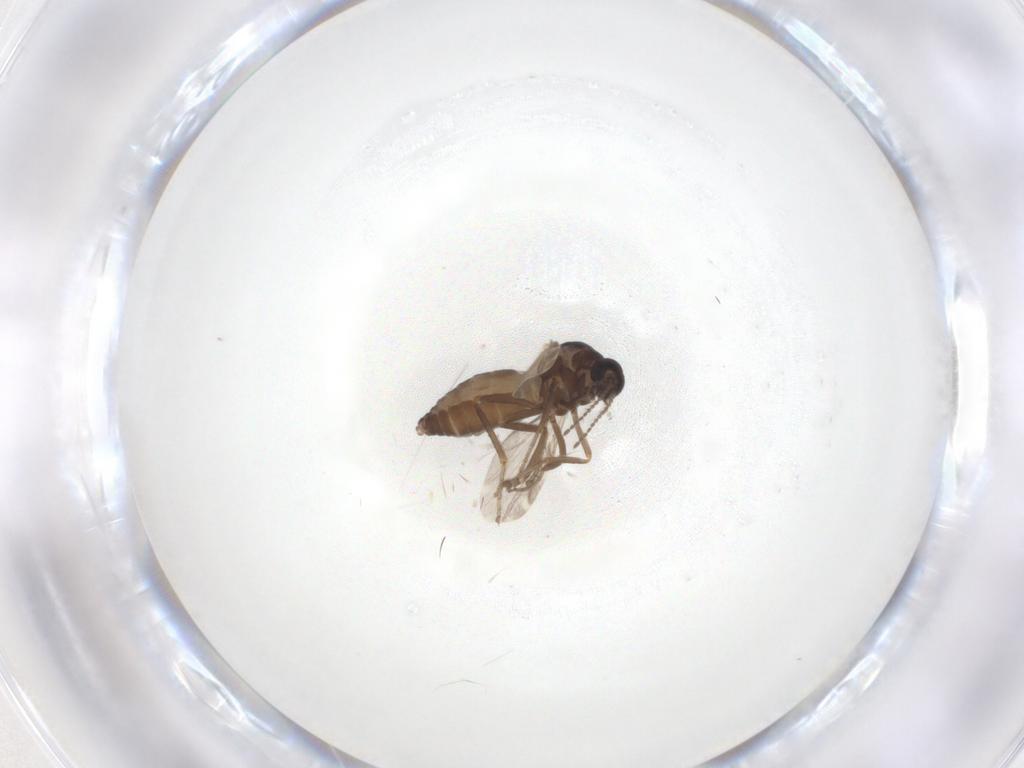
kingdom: Animalia
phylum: Arthropoda
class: Insecta
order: Diptera
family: Ceratopogonidae
